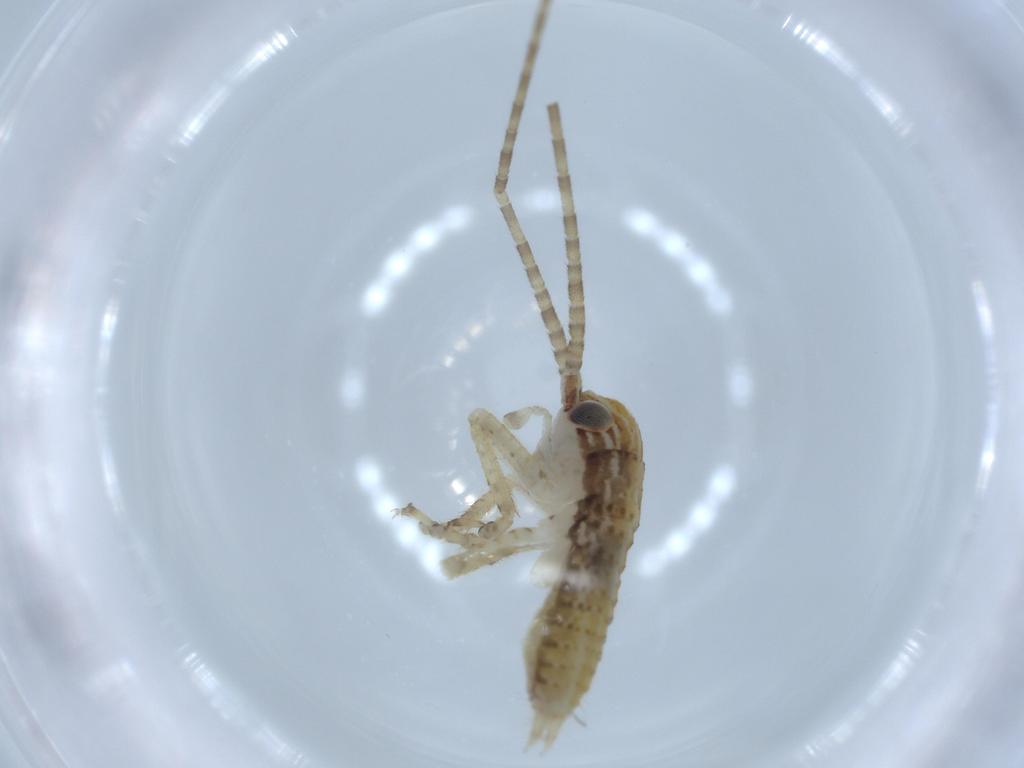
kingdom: Animalia
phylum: Arthropoda
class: Insecta
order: Orthoptera
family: Gryllidae
